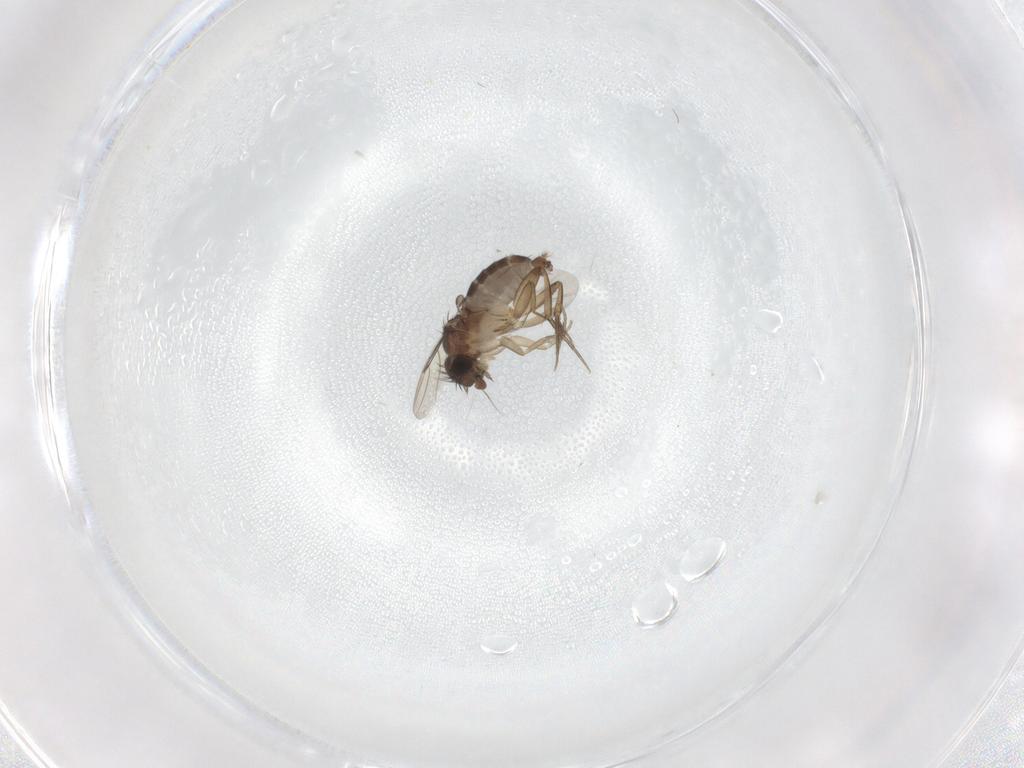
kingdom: Animalia
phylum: Arthropoda
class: Insecta
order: Diptera
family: Phoridae
